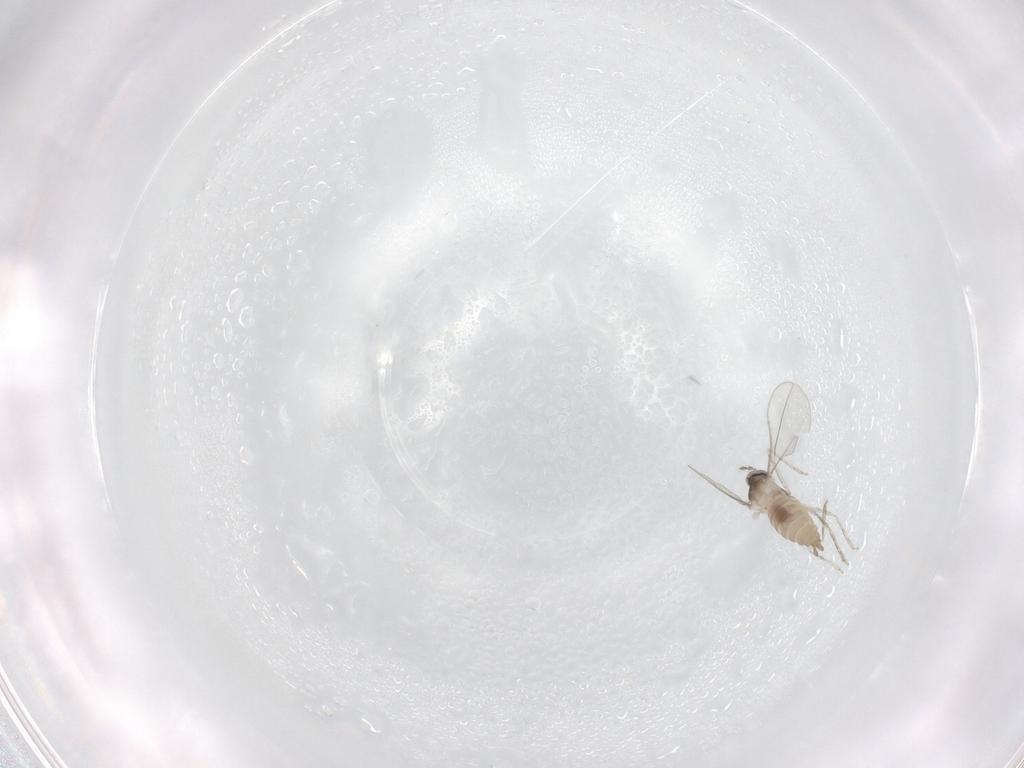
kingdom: Animalia
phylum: Arthropoda
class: Insecta
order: Diptera
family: Cecidomyiidae
